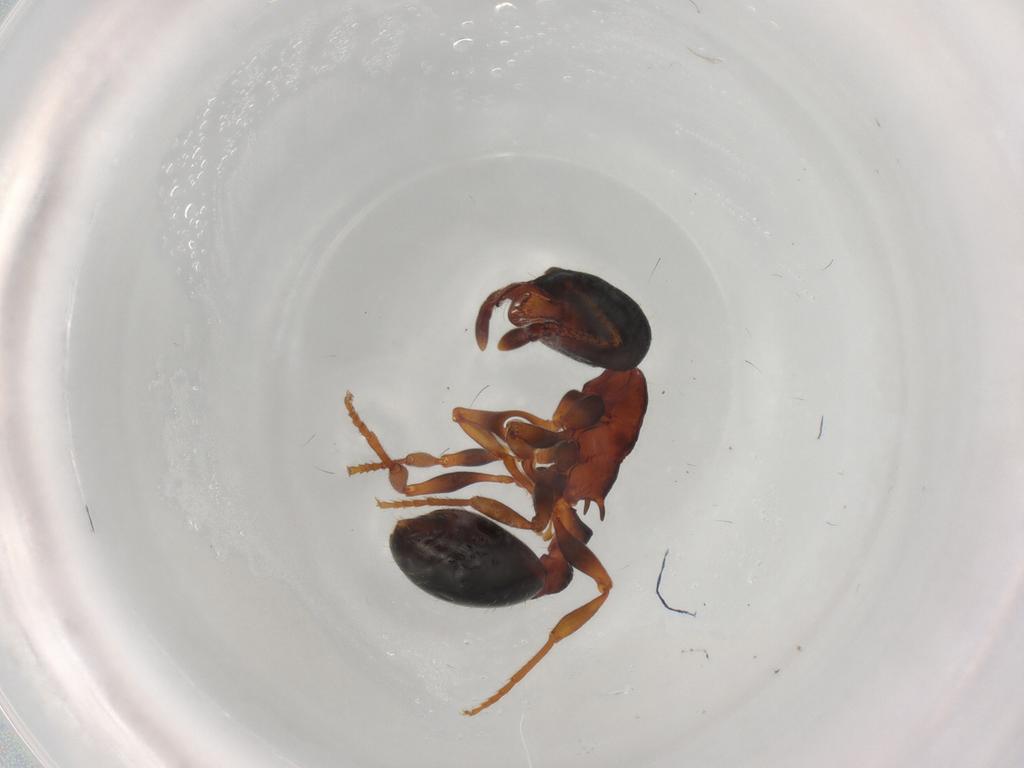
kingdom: Animalia
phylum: Arthropoda
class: Insecta
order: Hymenoptera
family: Formicidae
